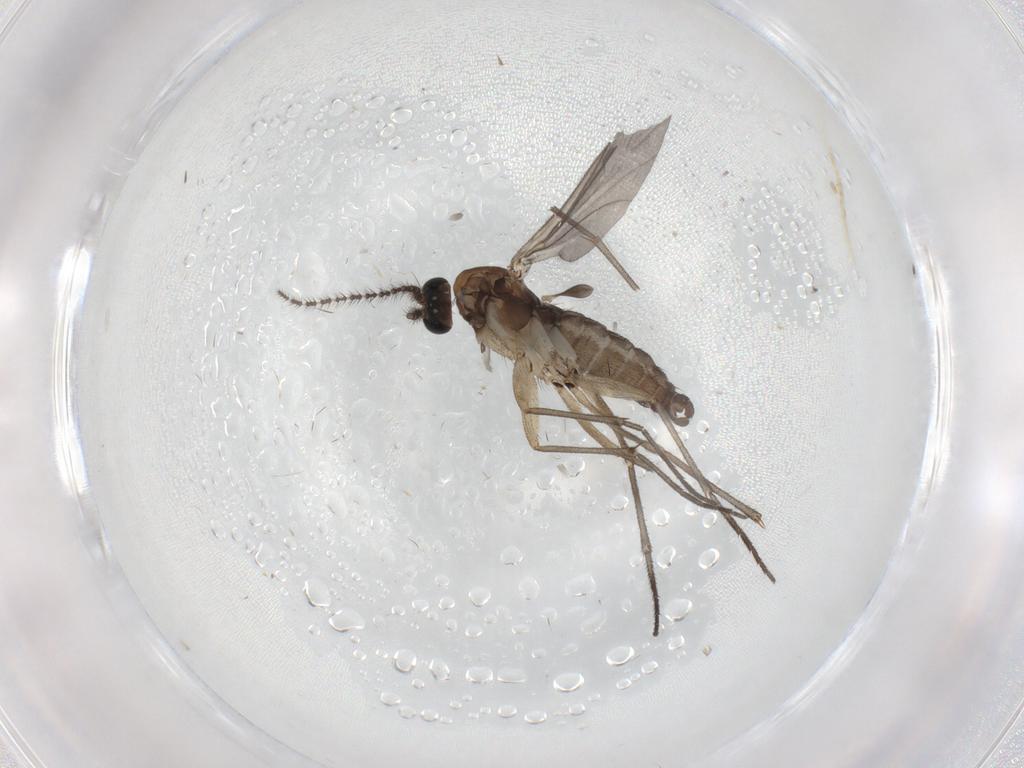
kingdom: Animalia
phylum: Arthropoda
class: Insecta
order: Diptera
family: Sciaridae
